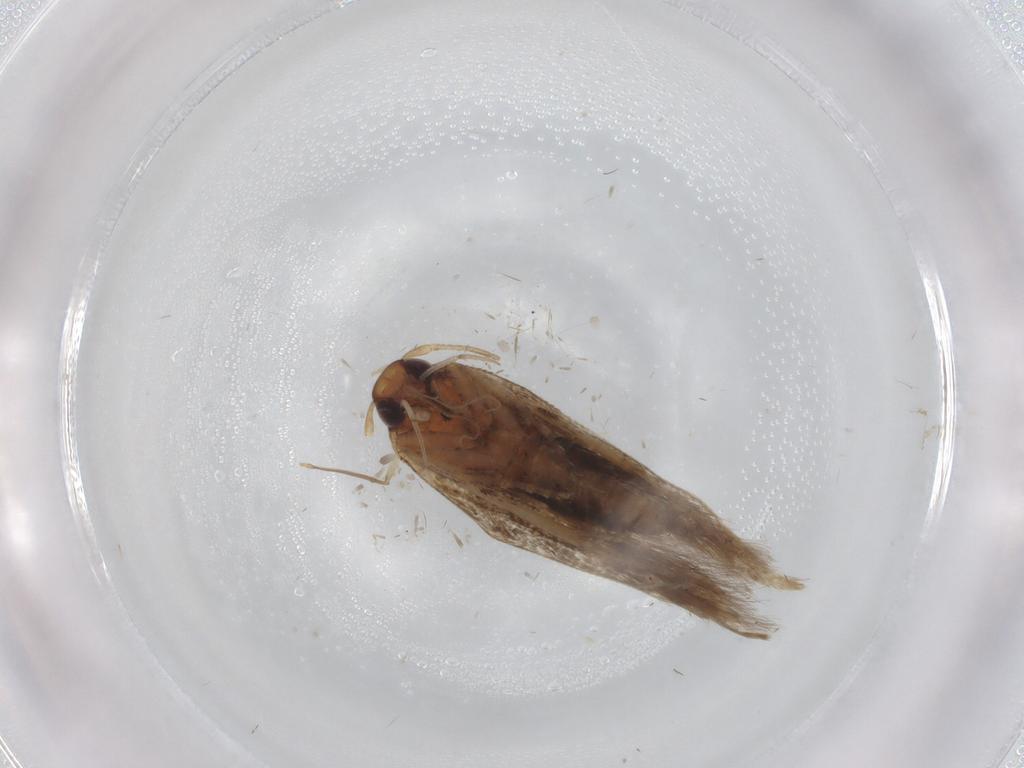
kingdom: Animalia
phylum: Arthropoda
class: Insecta
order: Lepidoptera
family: Cosmopterigidae
